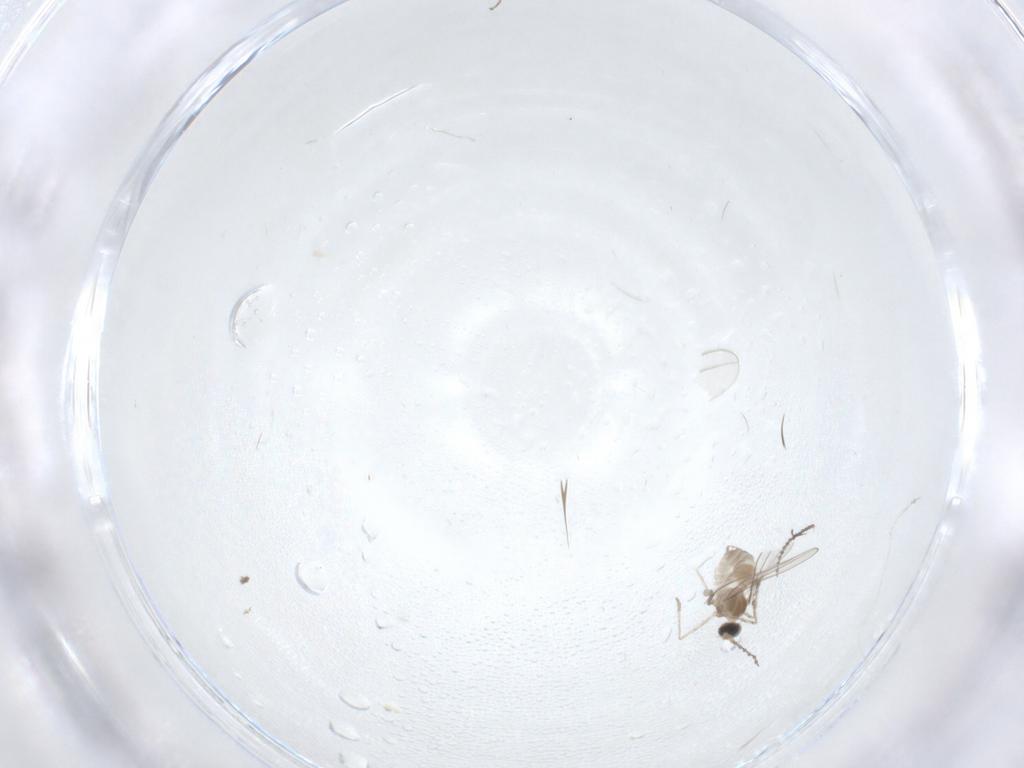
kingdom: Animalia
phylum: Arthropoda
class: Insecta
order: Diptera
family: Cecidomyiidae
